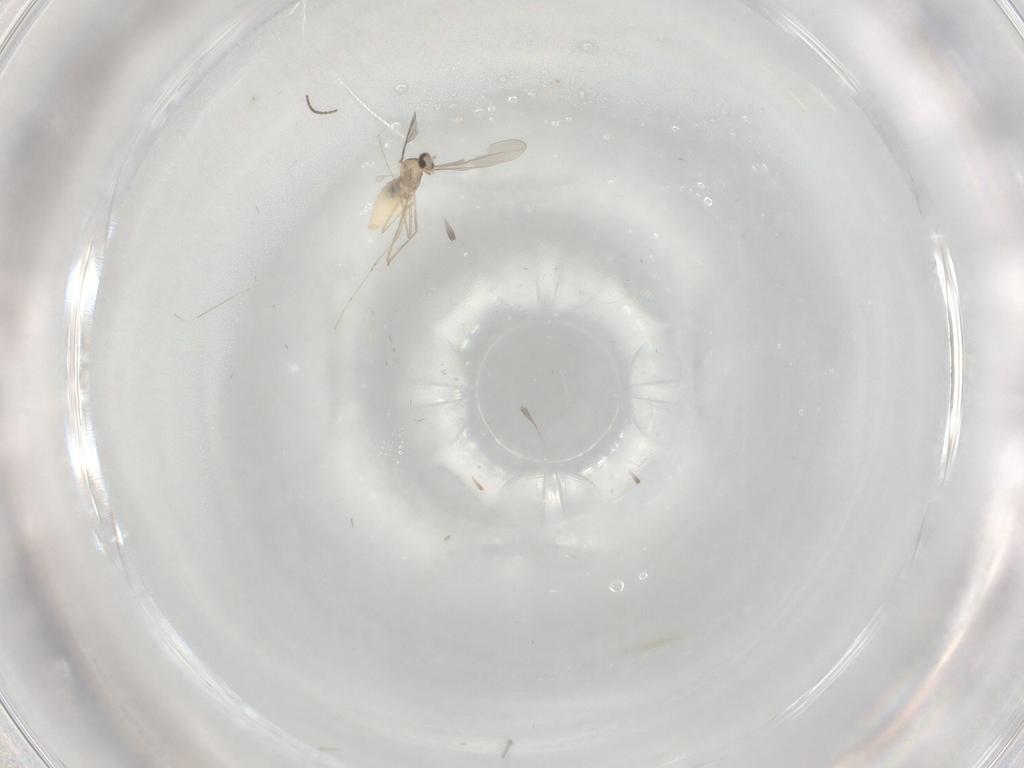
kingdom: Animalia
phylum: Arthropoda
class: Insecta
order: Diptera
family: Cecidomyiidae
